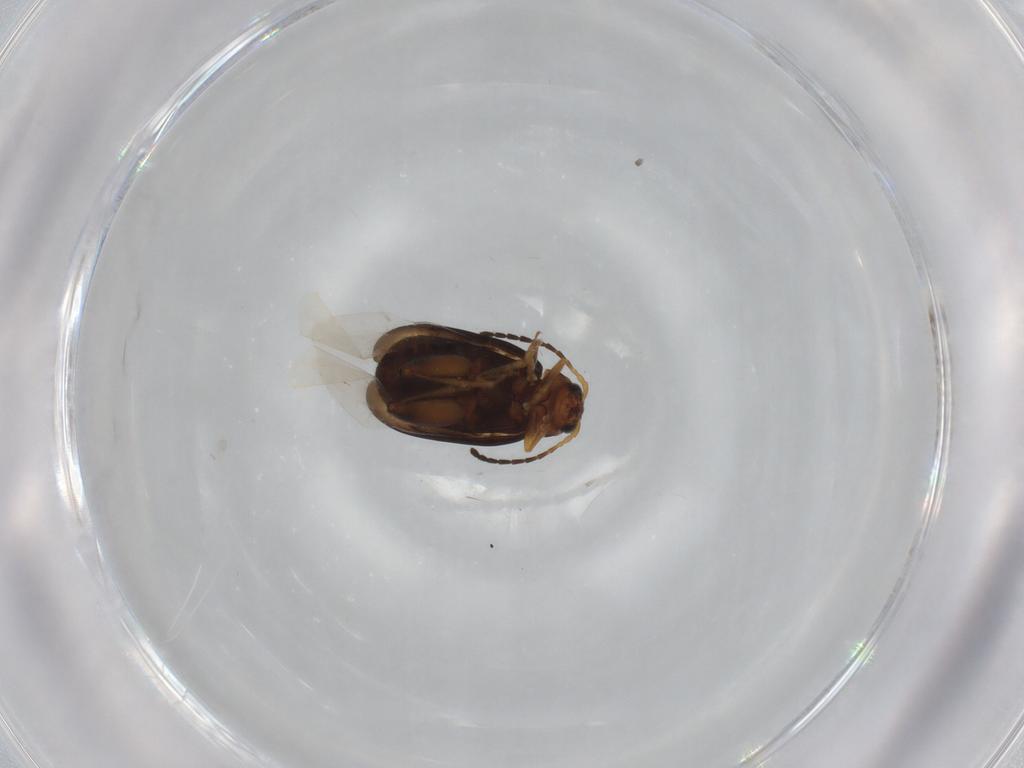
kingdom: Animalia
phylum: Arthropoda
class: Insecta
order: Coleoptera
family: Chrysomelidae
